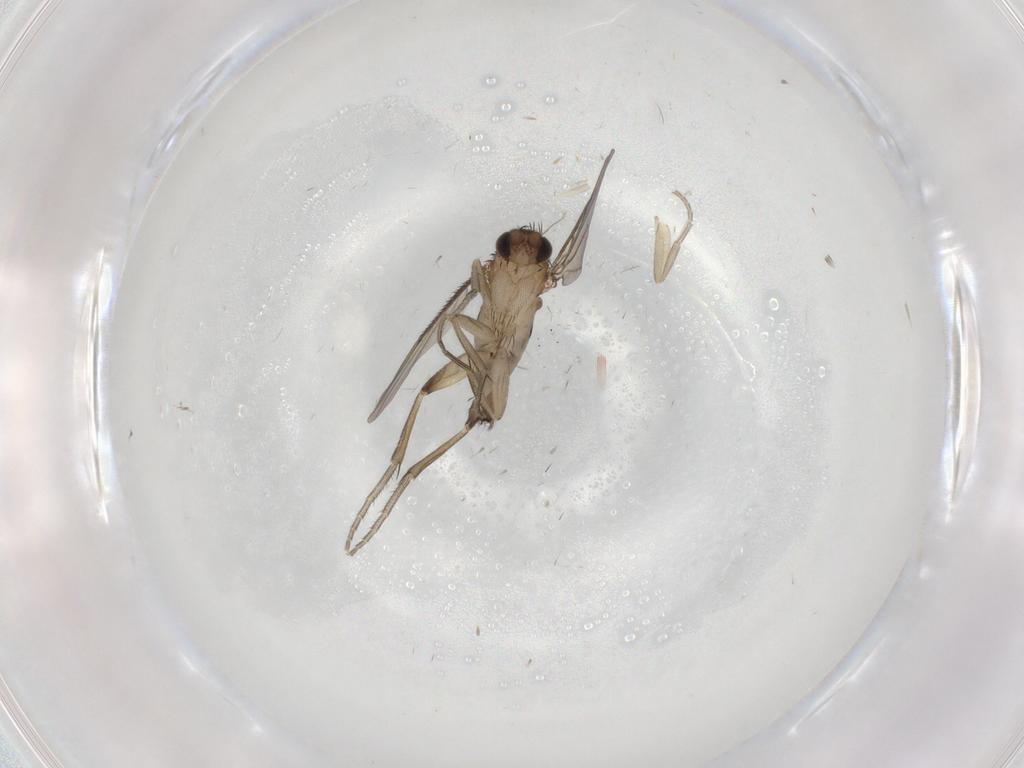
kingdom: Animalia
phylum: Arthropoda
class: Insecta
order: Diptera
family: Phoridae
